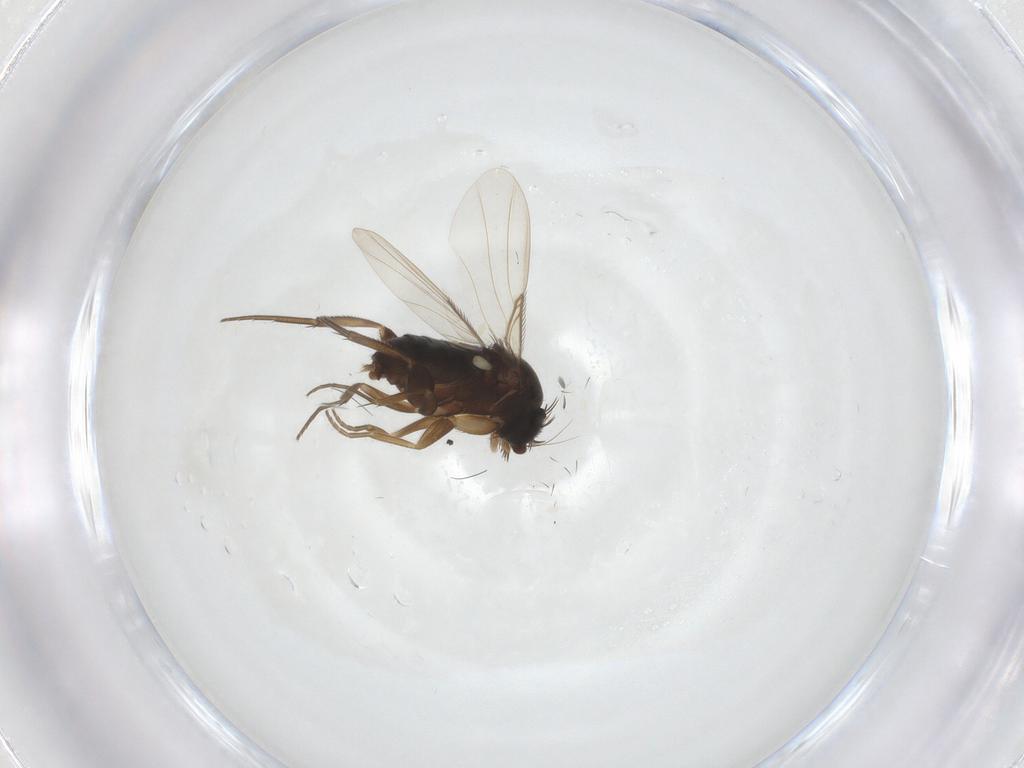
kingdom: Animalia
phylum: Arthropoda
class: Insecta
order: Diptera
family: Phoridae
